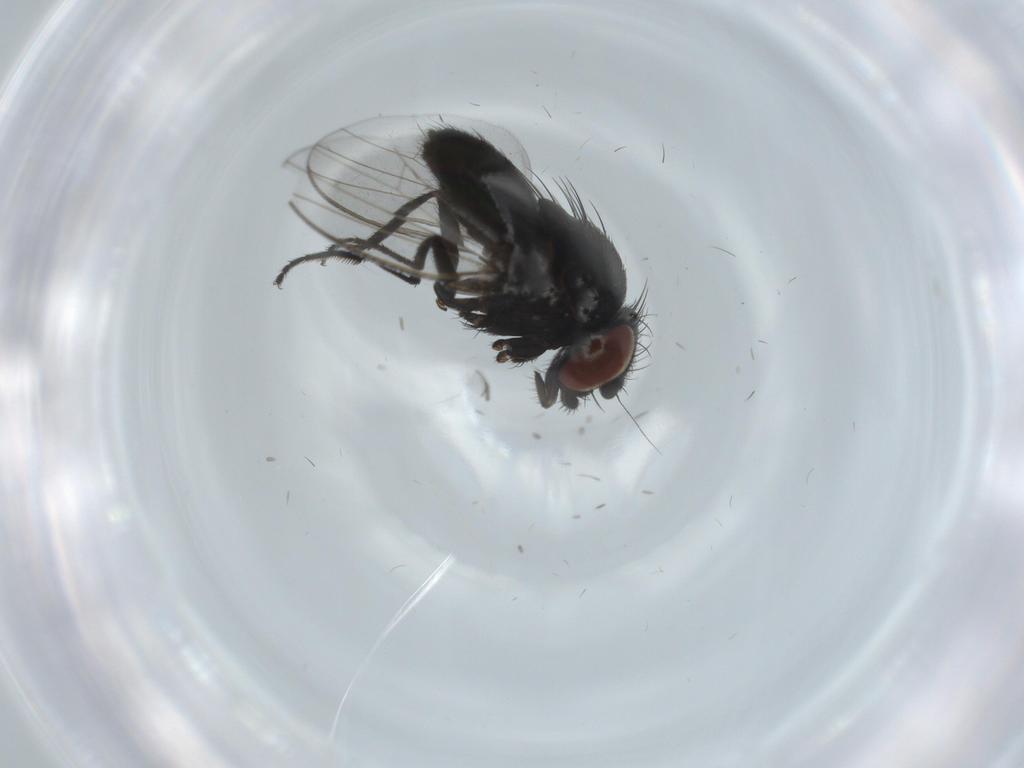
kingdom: Animalia
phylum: Arthropoda
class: Insecta
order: Diptera
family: Milichiidae
